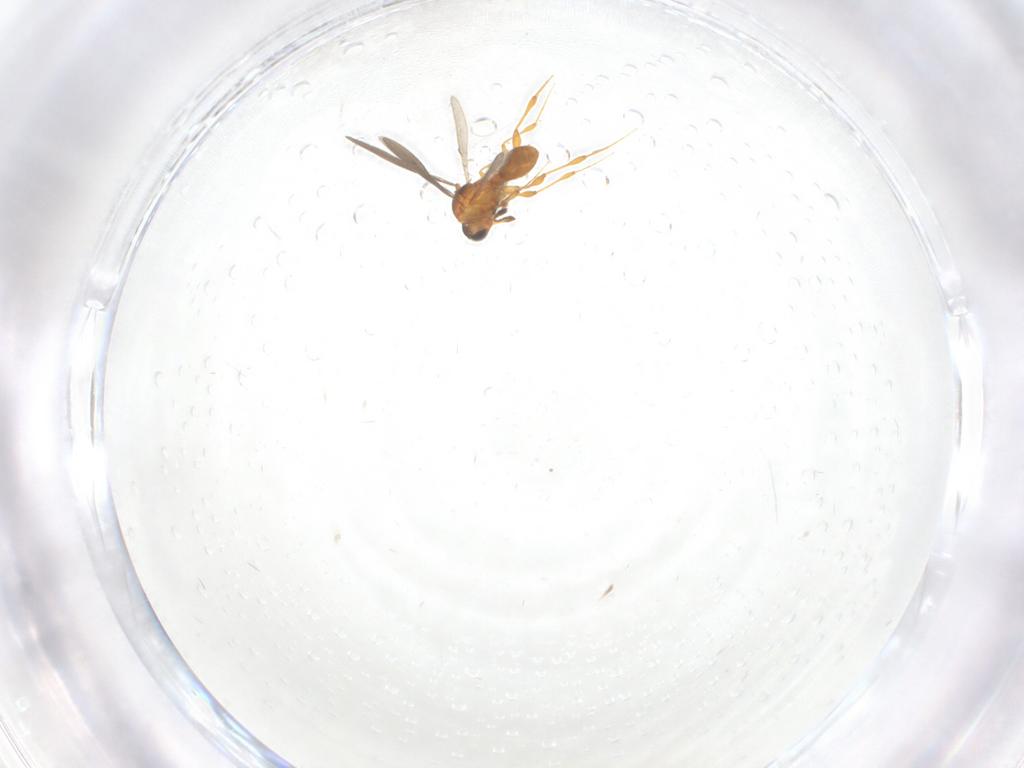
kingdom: Animalia
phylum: Arthropoda
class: Insecta
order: Hymenoptera
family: Platygastridae
